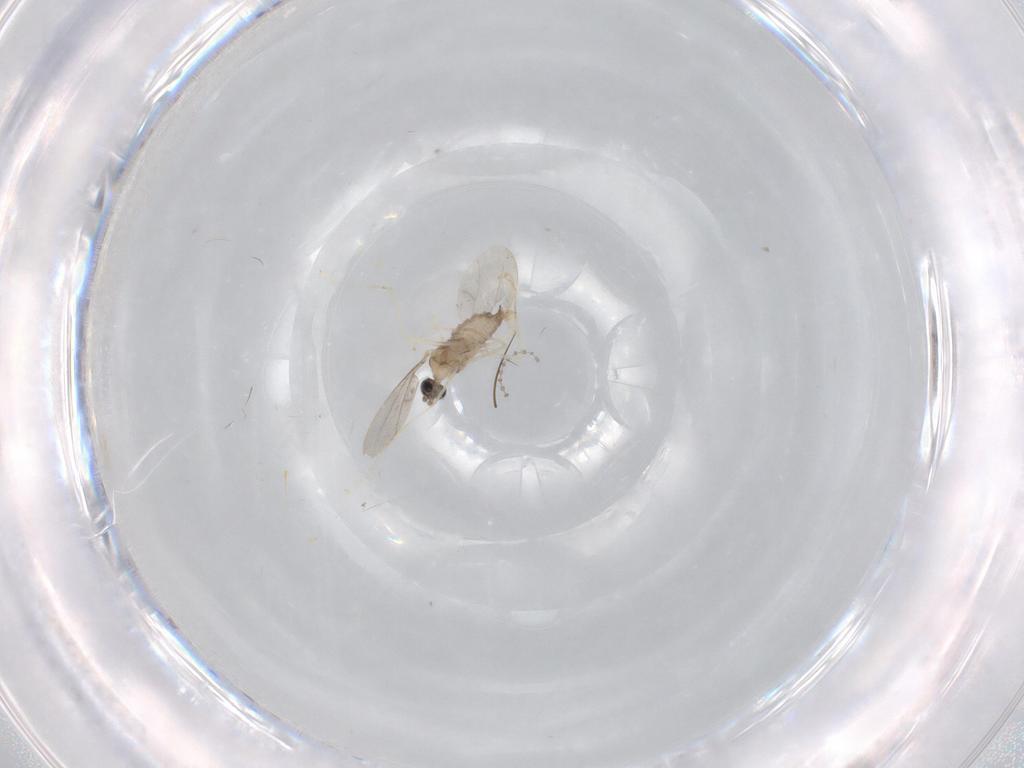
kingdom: Animalia
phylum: Arthropoda
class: Insecta
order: Diptera
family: Cecidomyiidae
